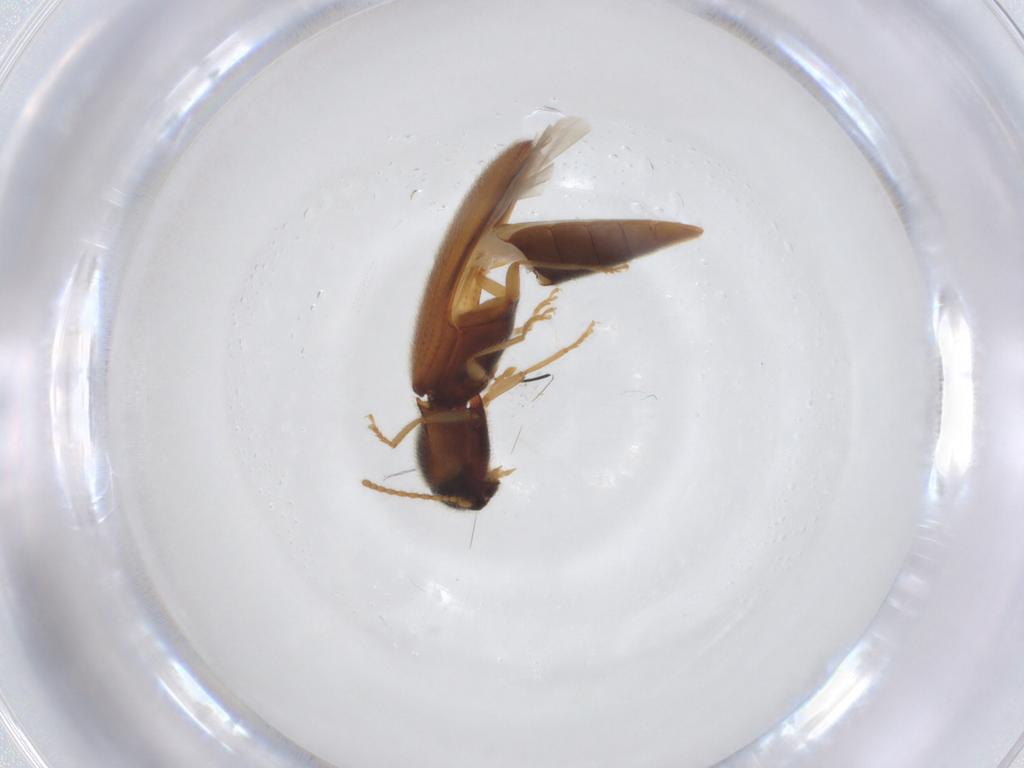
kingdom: Animalia
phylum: Arthropoda
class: Insecta
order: Coleoptera
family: Elateridae
